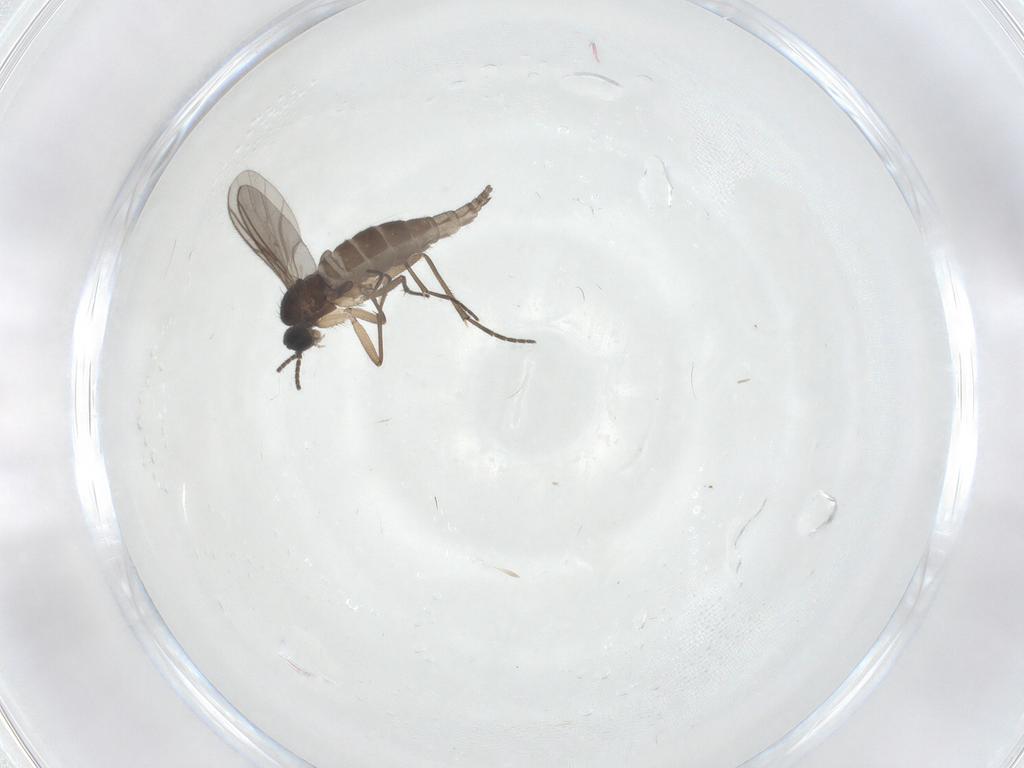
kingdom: Animalia
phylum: Arthropoda
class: Insecta
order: Diptera
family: Sciaridae
